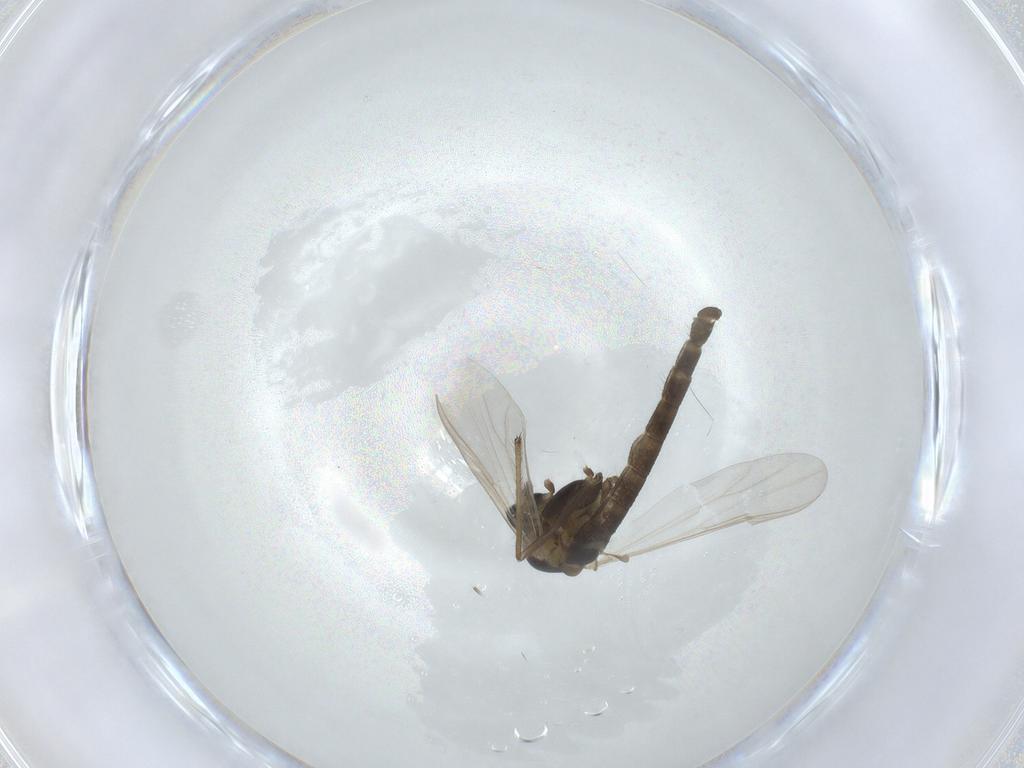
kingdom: Animalia
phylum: Arthropoda
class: Insecta
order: Diptera
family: Chironomidae
